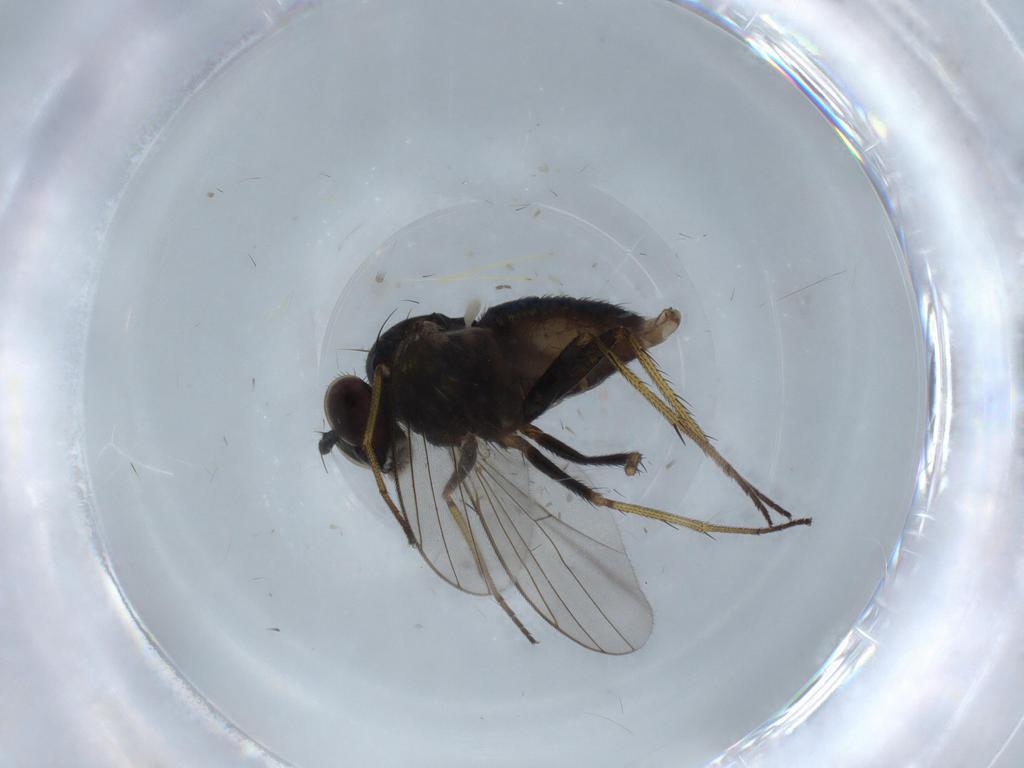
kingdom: Animalia
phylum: Arthropoda
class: Insecta
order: Diptera
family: Dolichopodidae
